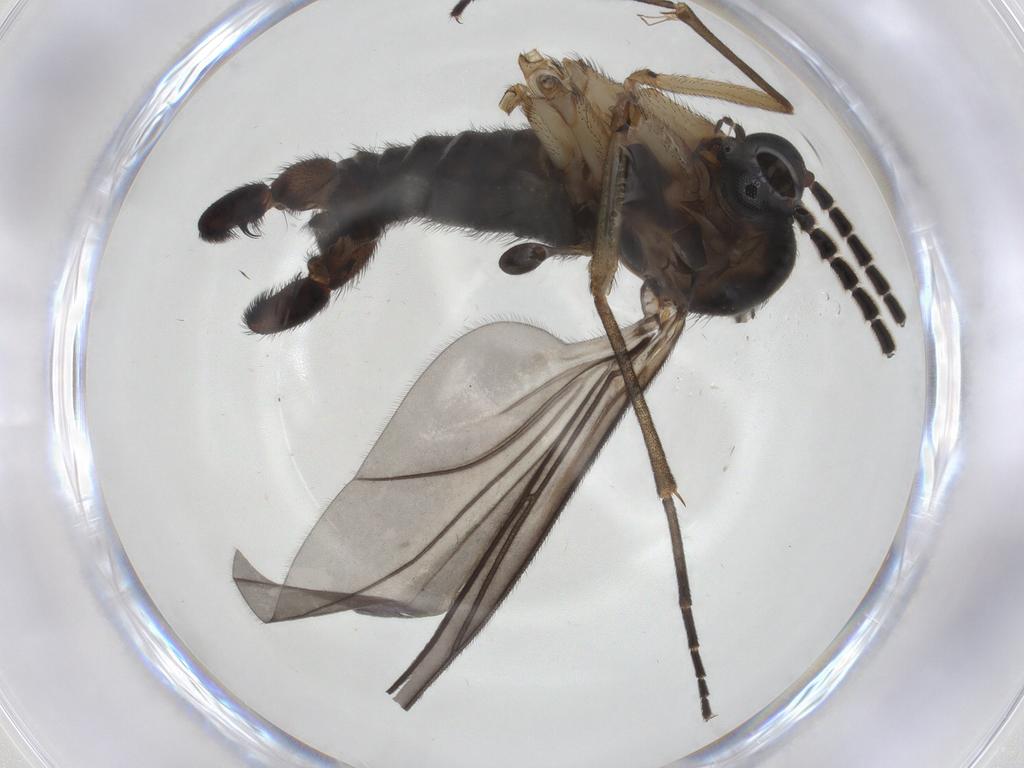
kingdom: Animalia
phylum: Arthropoda
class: Insecta
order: Diptera
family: Sciaridae
